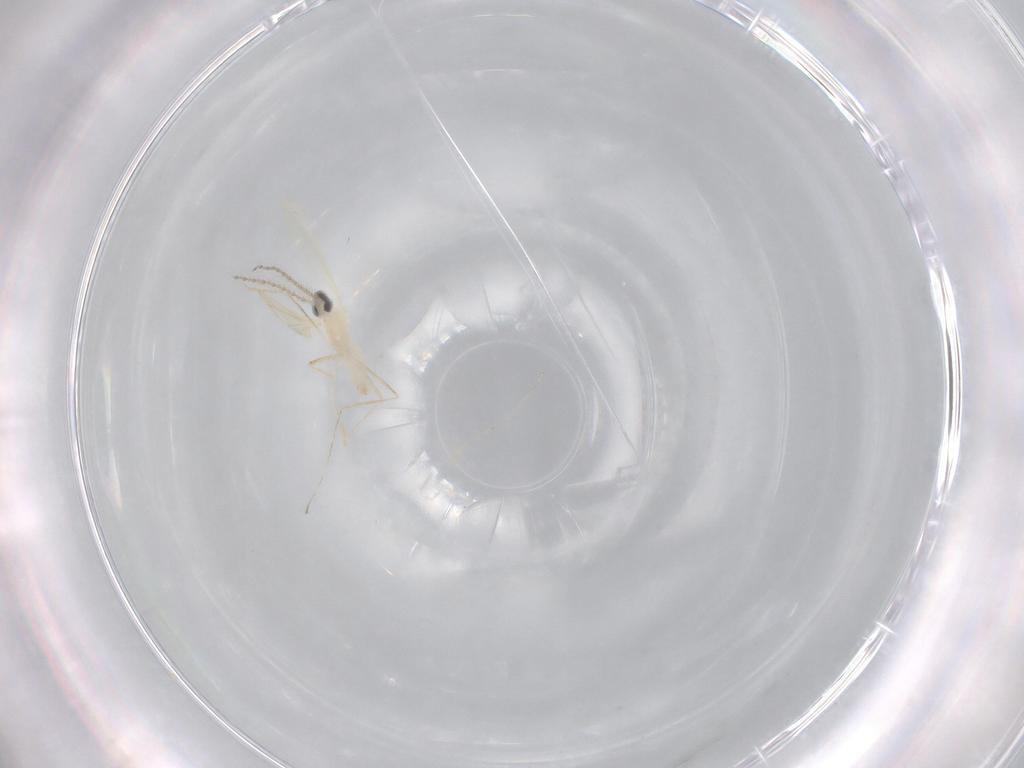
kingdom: Animalia
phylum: Arthropoda
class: Insecta
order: Diptera
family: Cecidomyiidae
